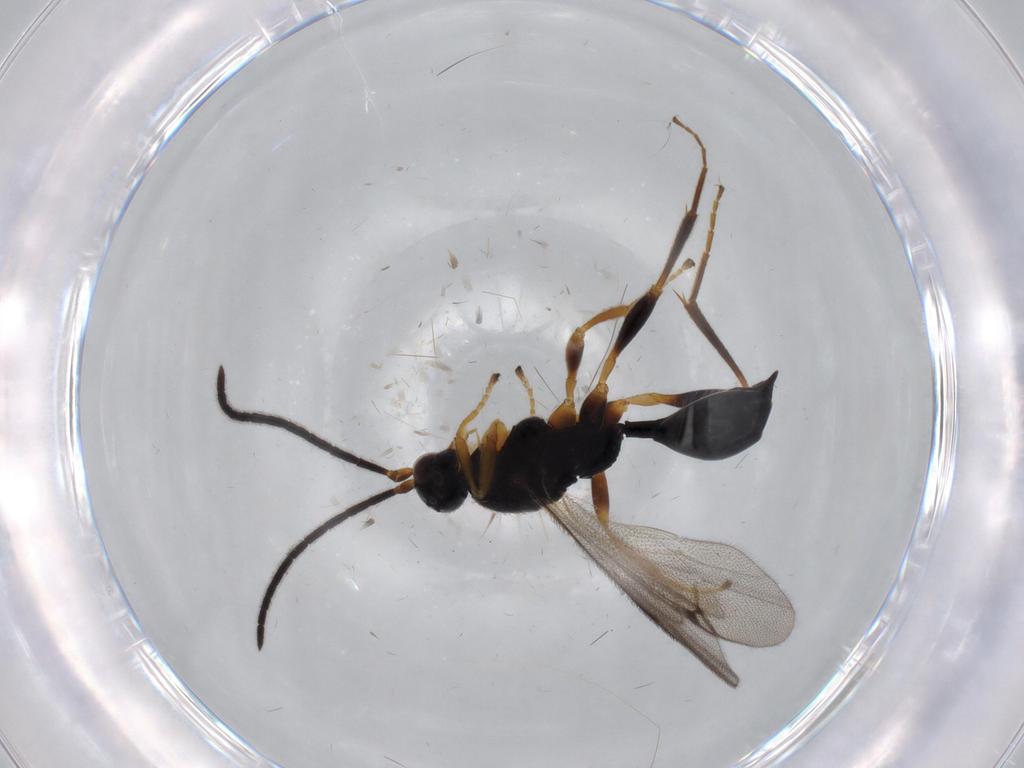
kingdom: Animalia
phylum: Arthropoda
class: Insecta
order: Hymenoptera
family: Proctotrupidae
